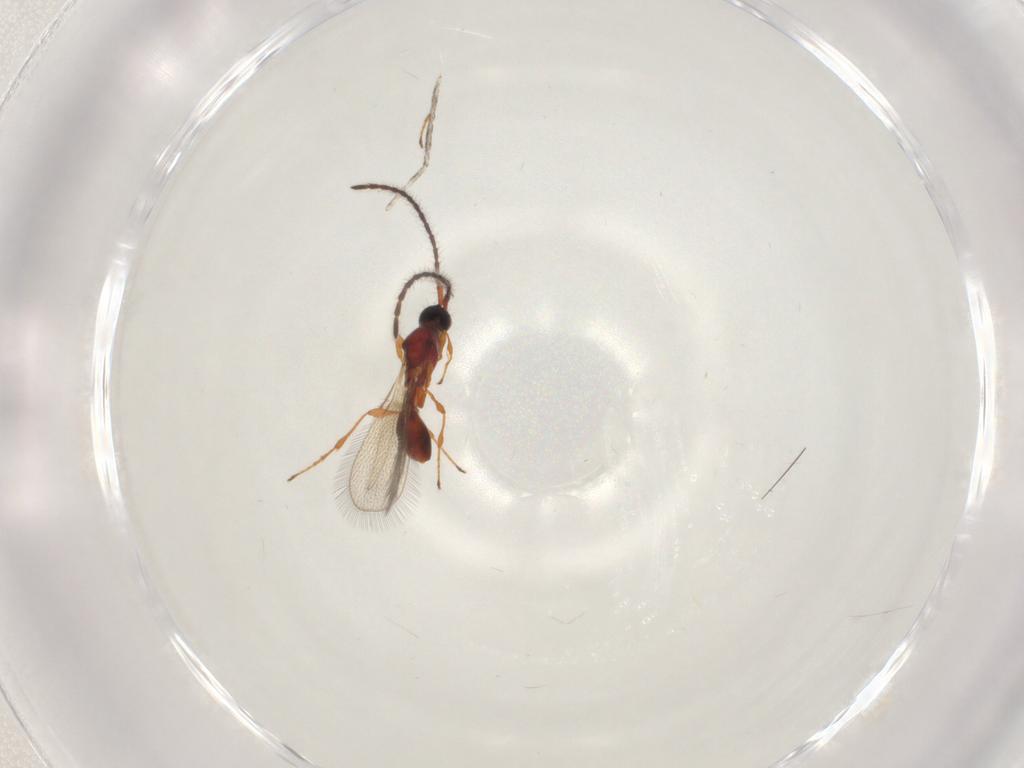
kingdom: Animalia
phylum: Arthropoda
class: Insecta
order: Hymenoptera
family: Diapriidae
